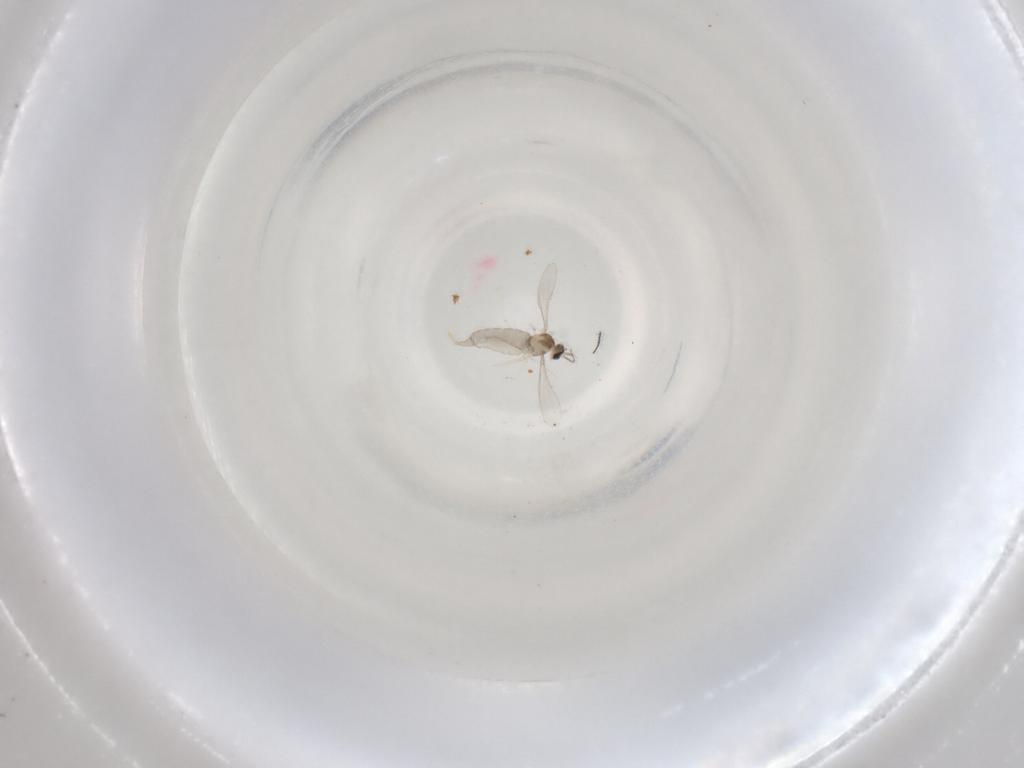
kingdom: Animalia
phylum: Arthropoda
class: Insecta
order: Diptera
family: Cecidomyiidae
